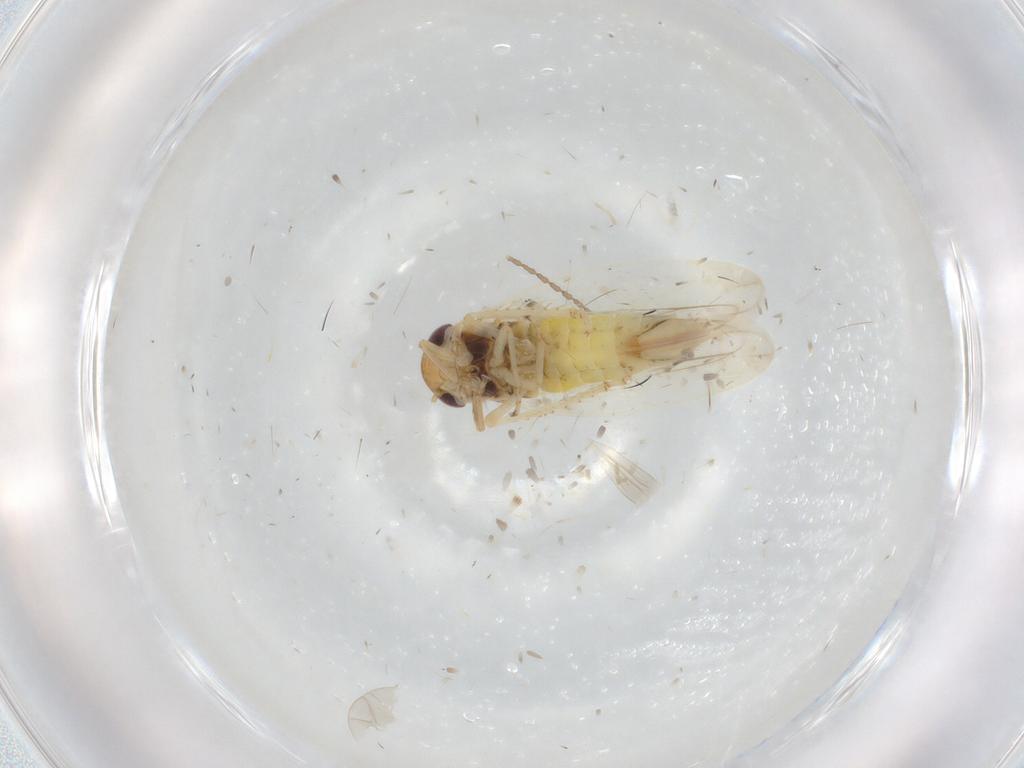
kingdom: Animalia
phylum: Arthropoda
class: Insecta
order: Hemiptera
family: Cicadellidae
